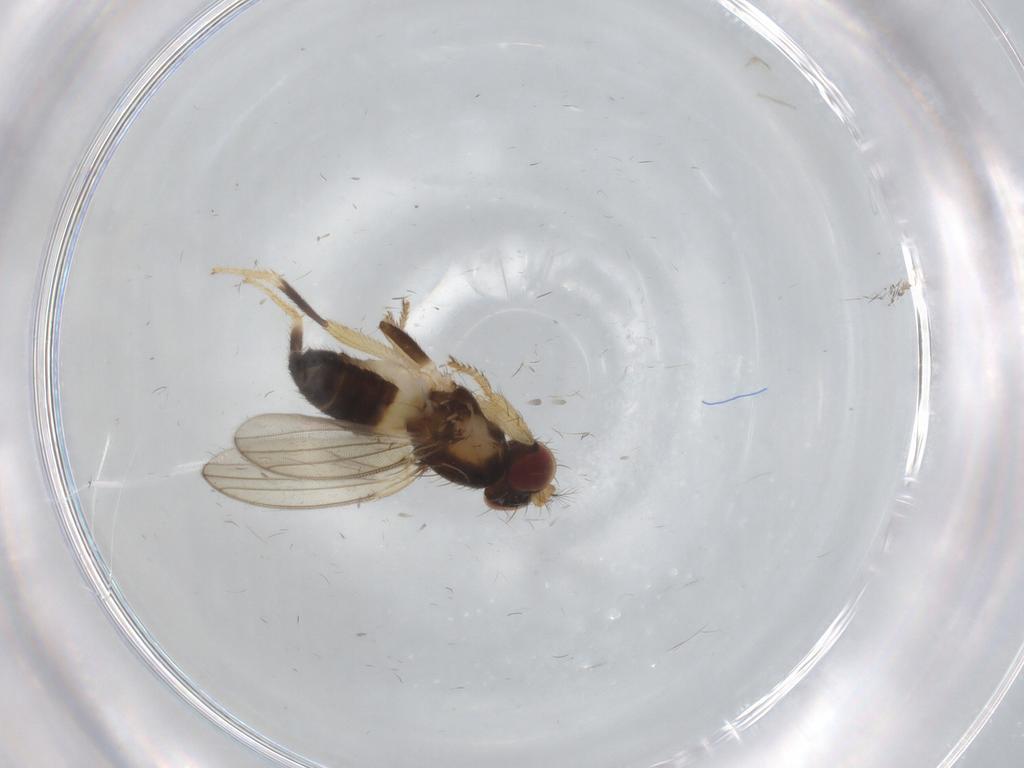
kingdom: Animalia
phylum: Arthropoda
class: Insecta
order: Diptera
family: Periscelididae
